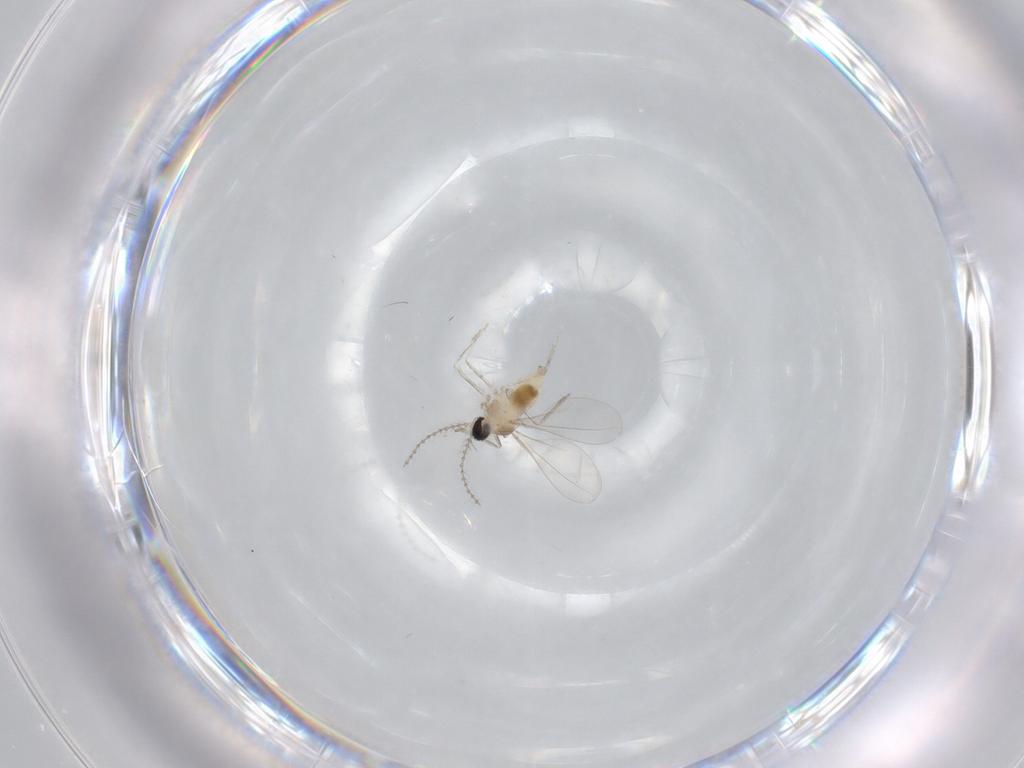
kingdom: Animalia
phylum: Arthropoda
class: Insecta
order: Diptera
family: Cecidomyiidae
